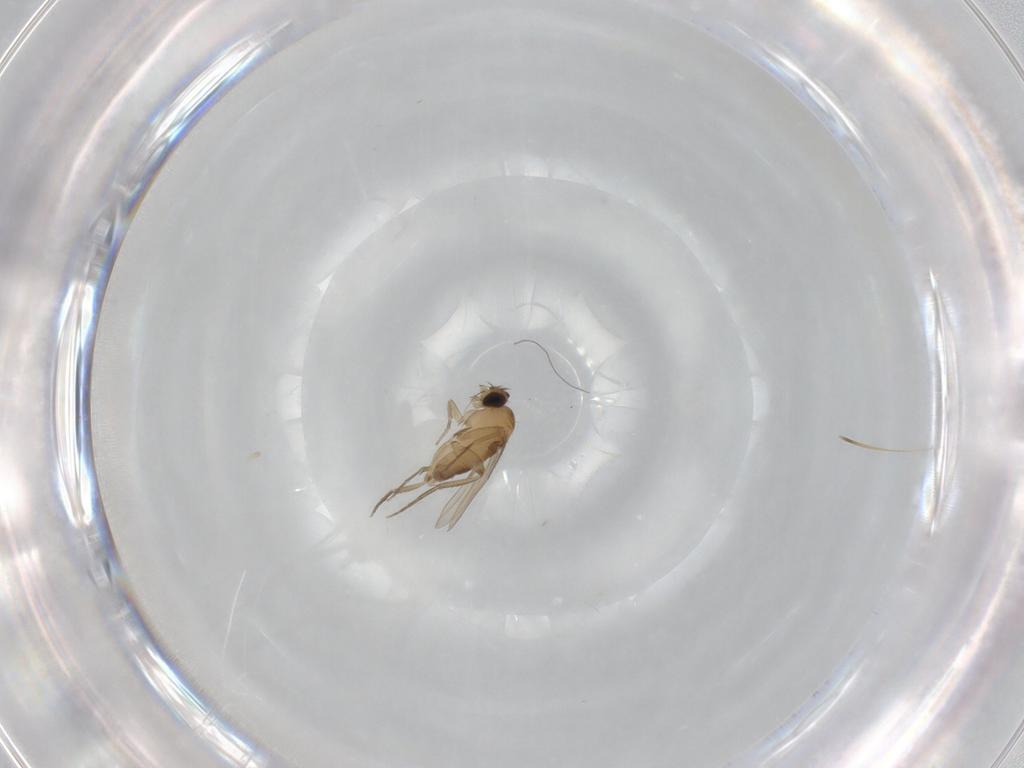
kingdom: Animalia
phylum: Arthropoda
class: Insecta
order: Diptera
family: Phoridae
